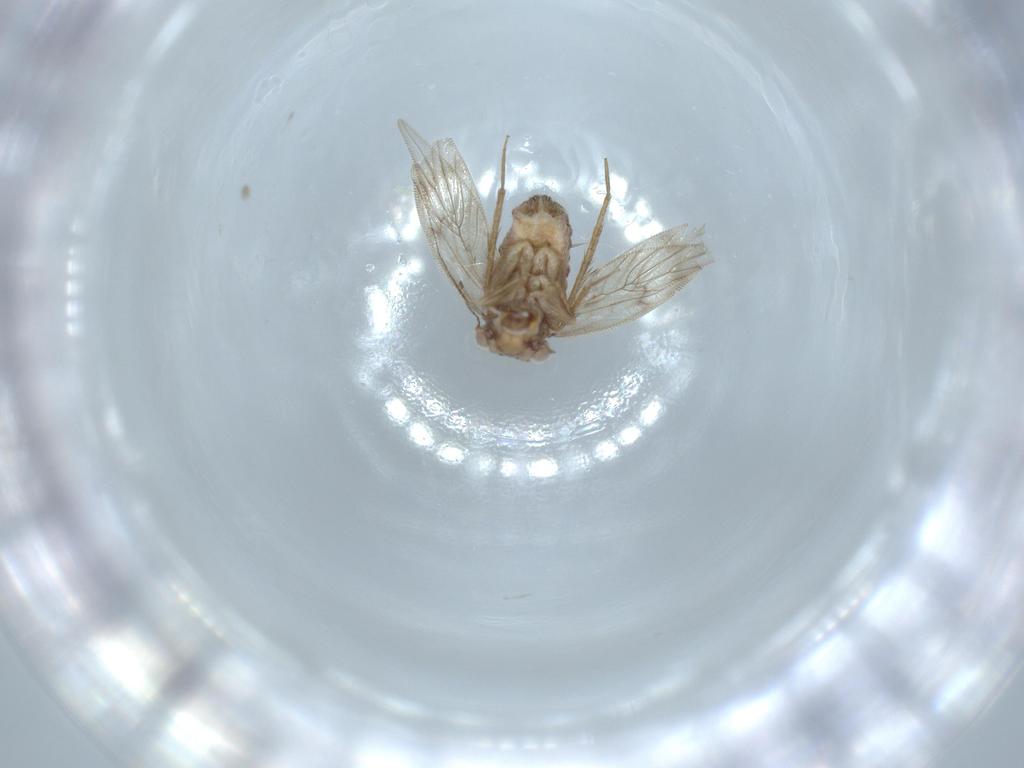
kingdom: Animalia
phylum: Arthropoda
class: Insecta
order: Psocodea
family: Lepidopsocidae
